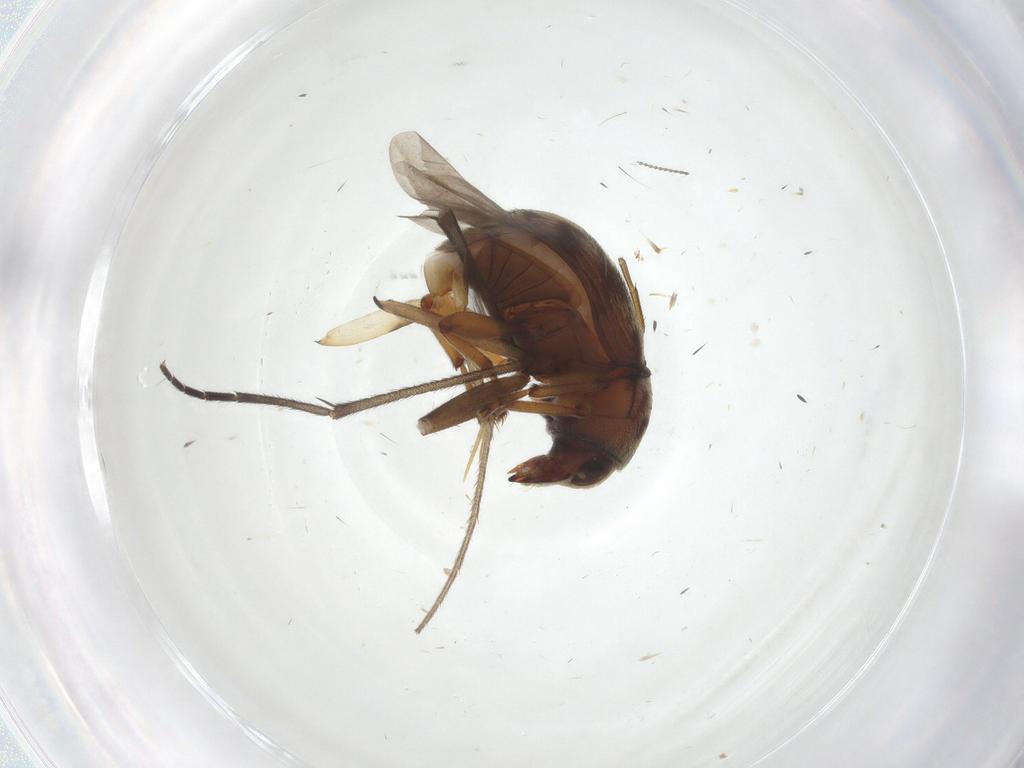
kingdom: Animalia
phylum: Arthropoda
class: Insecta
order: Coleoptera
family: Anthribidae
